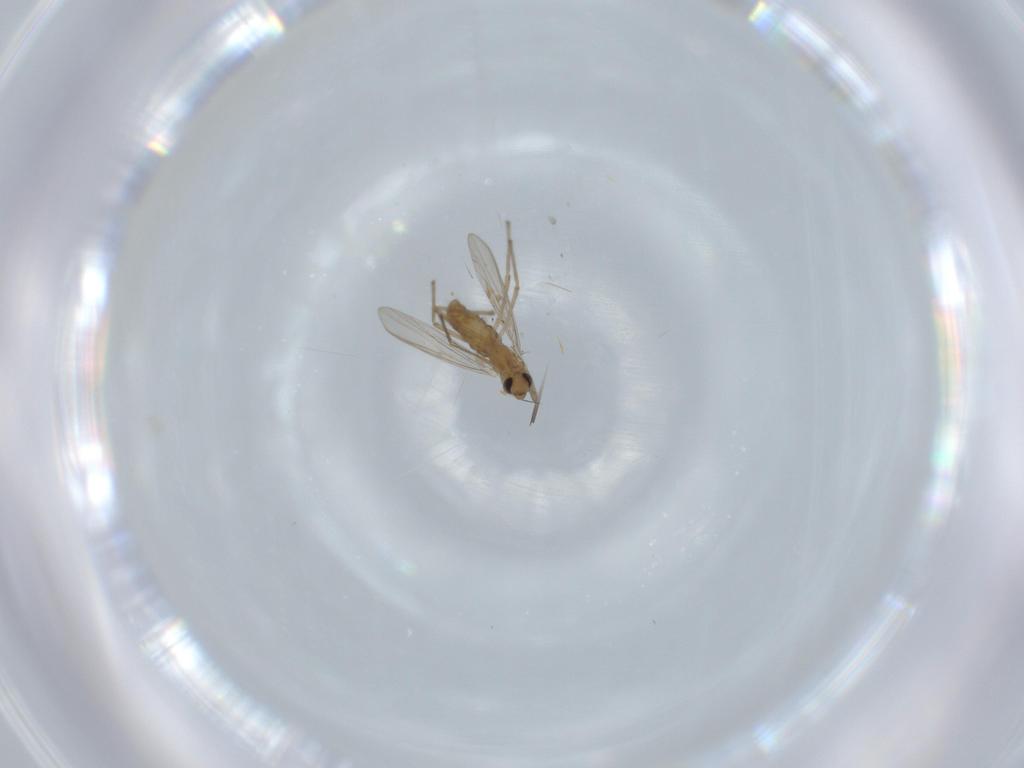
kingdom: Animalia
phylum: Arthropoda
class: Insecta
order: Diptera
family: Chironomidae
